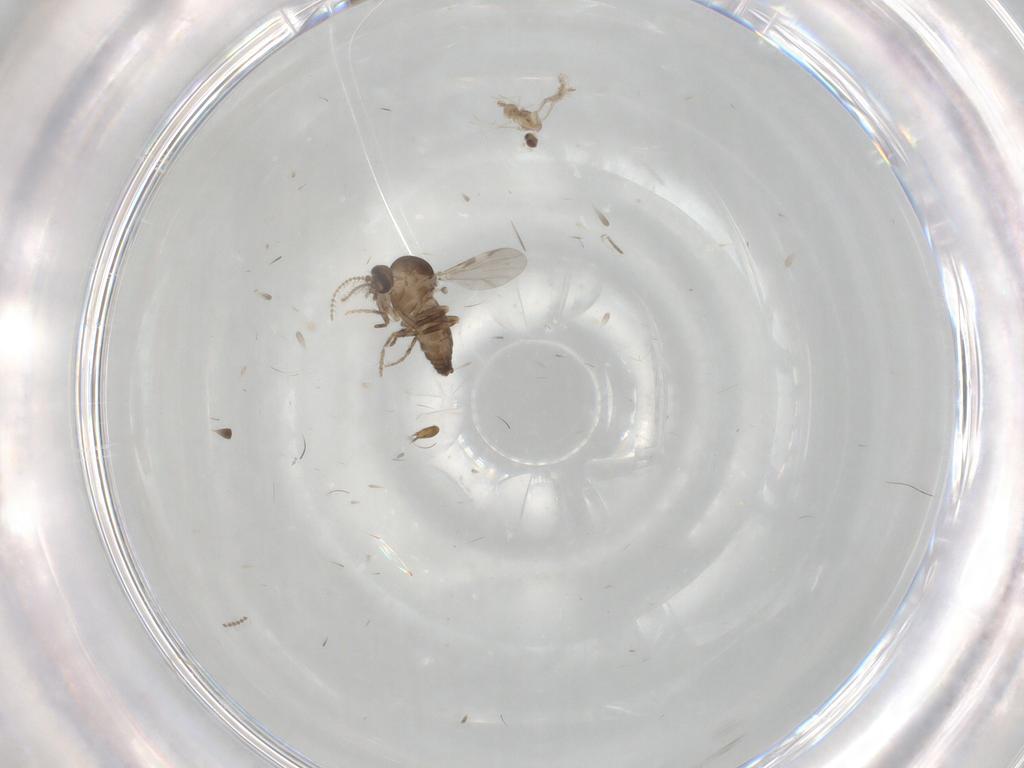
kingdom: Animalia
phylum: Arthropoda
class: Insecta
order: Diptera
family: Ceratopogonidae
